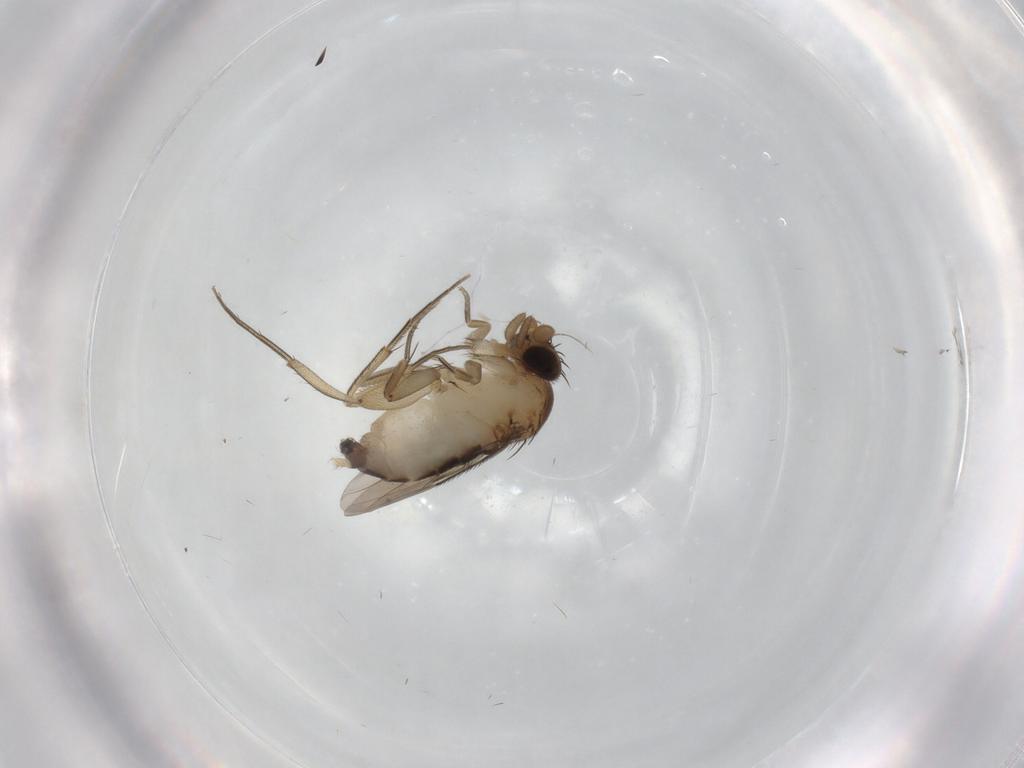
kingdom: Animalia
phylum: Arthropoda
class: Insecta
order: Diptera
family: Phoridae
